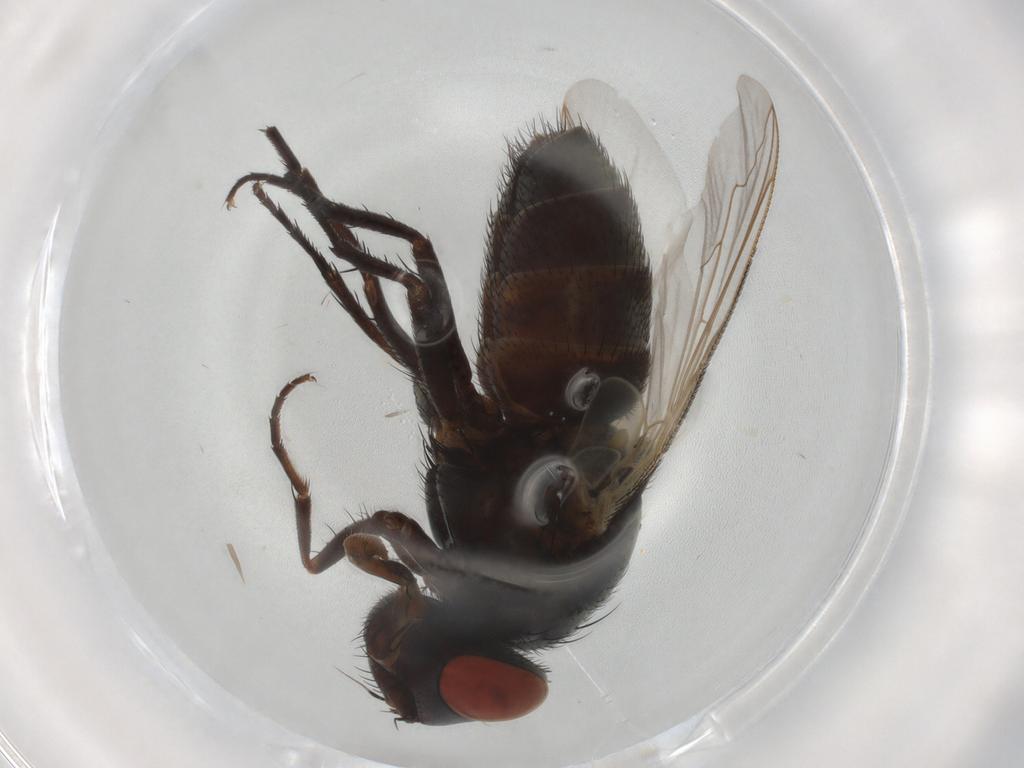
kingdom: Animalia
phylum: Arthropoda
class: Insecta
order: Diptera
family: Sarcophagidae
